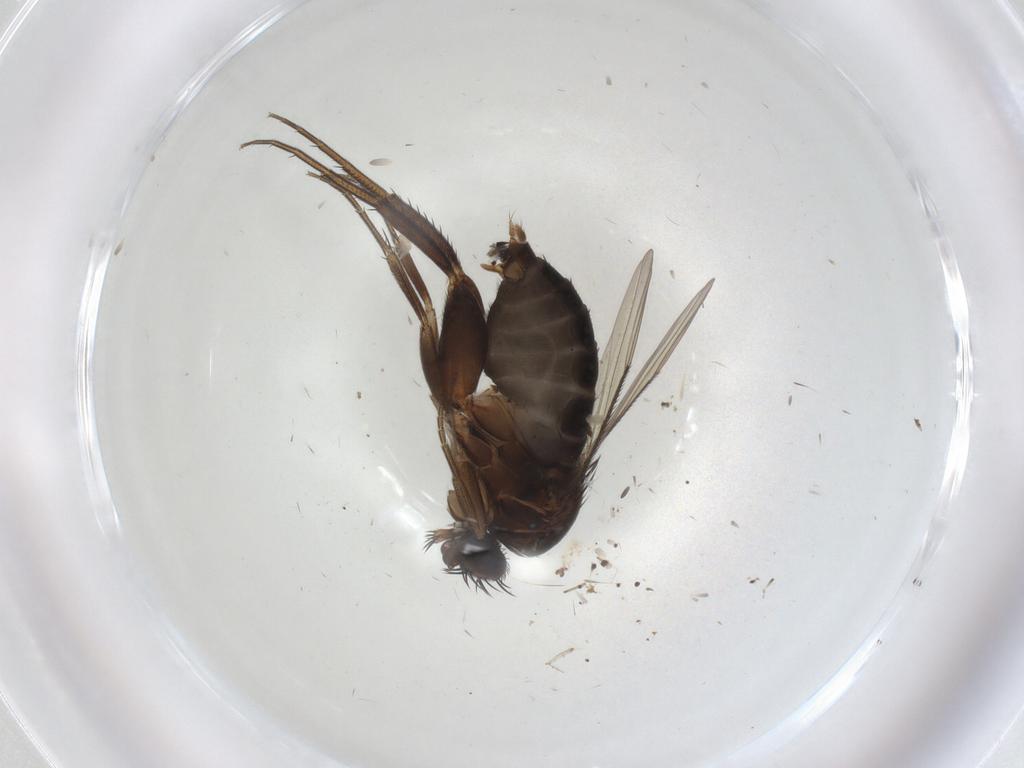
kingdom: Animalia
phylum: Arthropoda
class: Insecta
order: Diptera
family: Phoridae
